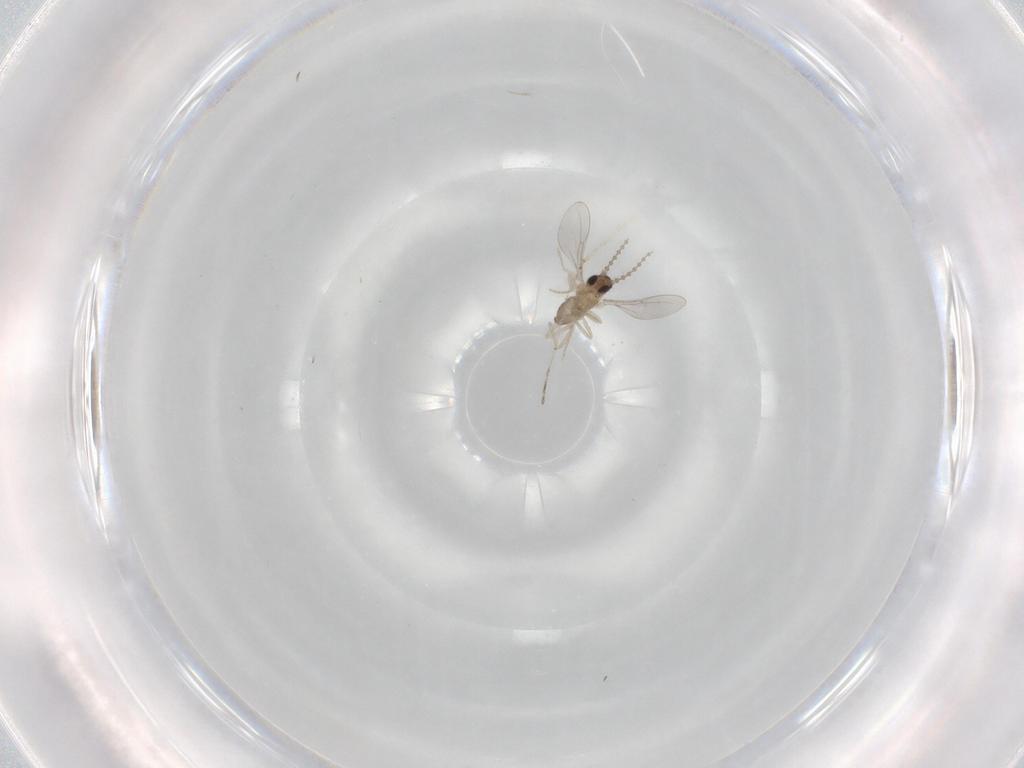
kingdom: Animalia
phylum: Arthropoda
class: Insecta
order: Diptera
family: Cecidomyiidae
